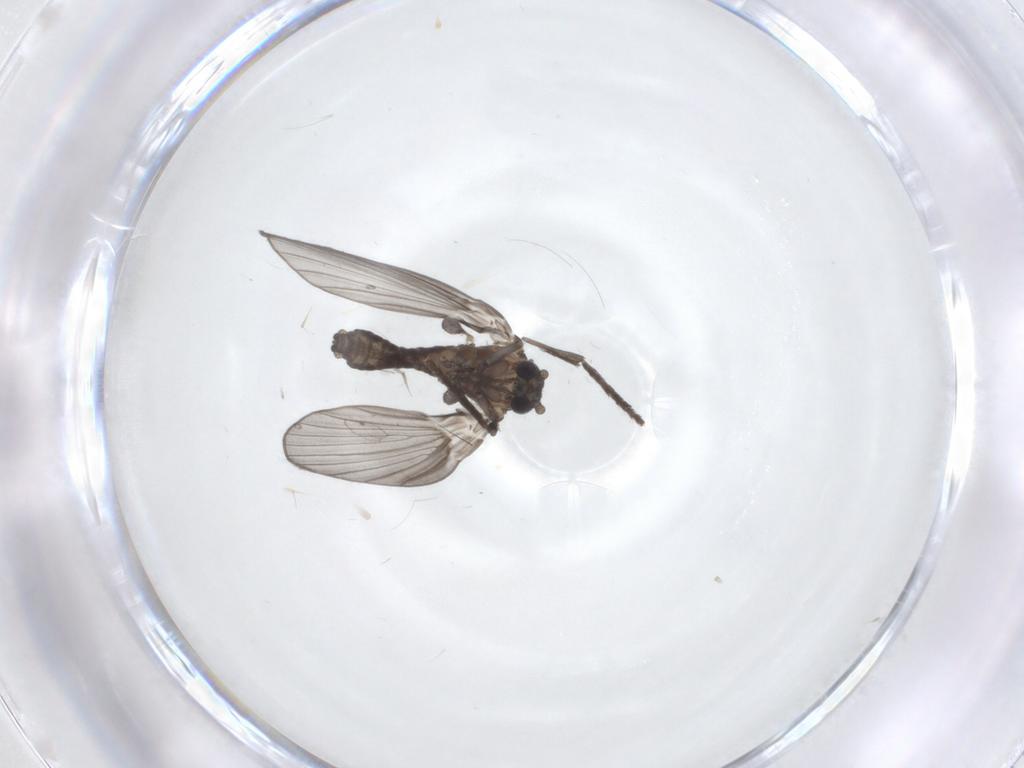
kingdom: Animalia
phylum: Arthropoda
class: Insecta
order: Diptera
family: Psychodidae
